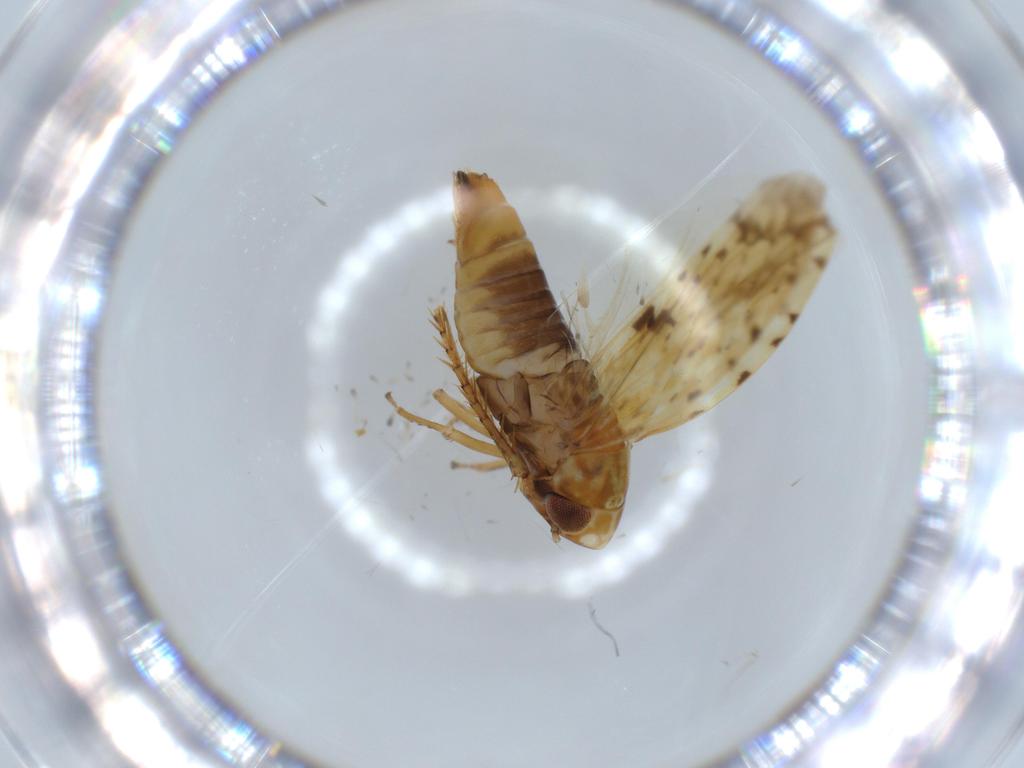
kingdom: Animalia
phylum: Arthropoda
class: Insecta
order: Hemiptera
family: Cicadellidae
